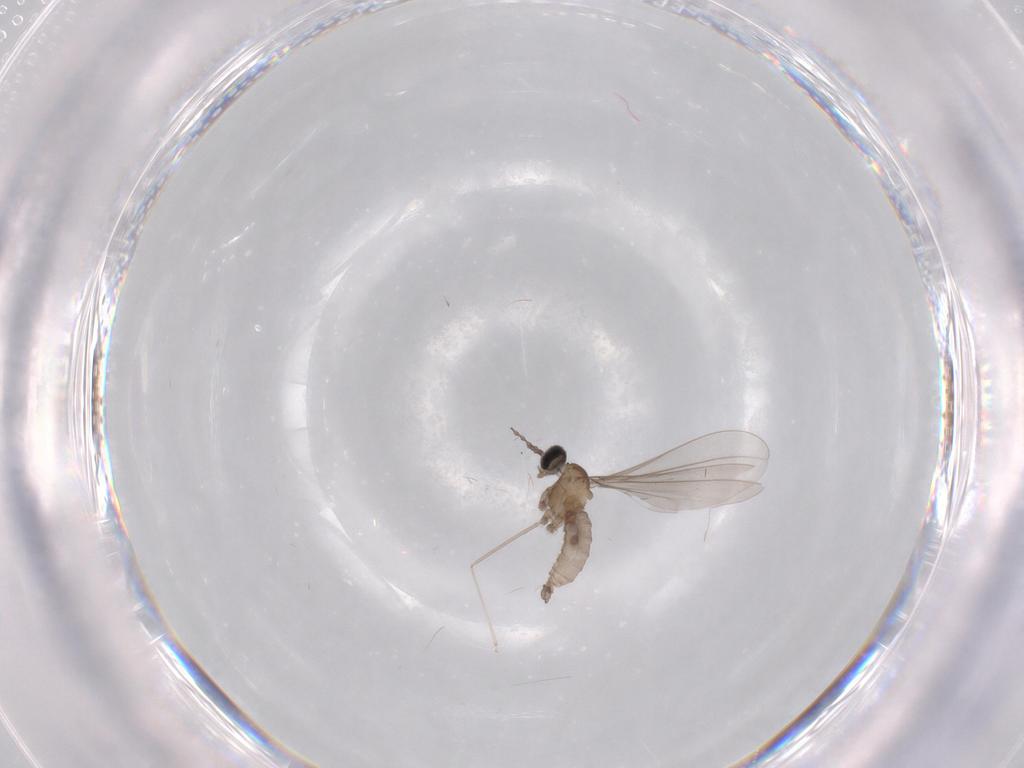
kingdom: Animalia
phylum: Arthropoda
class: Insecta
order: Diptera
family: Cecidomyiidae
